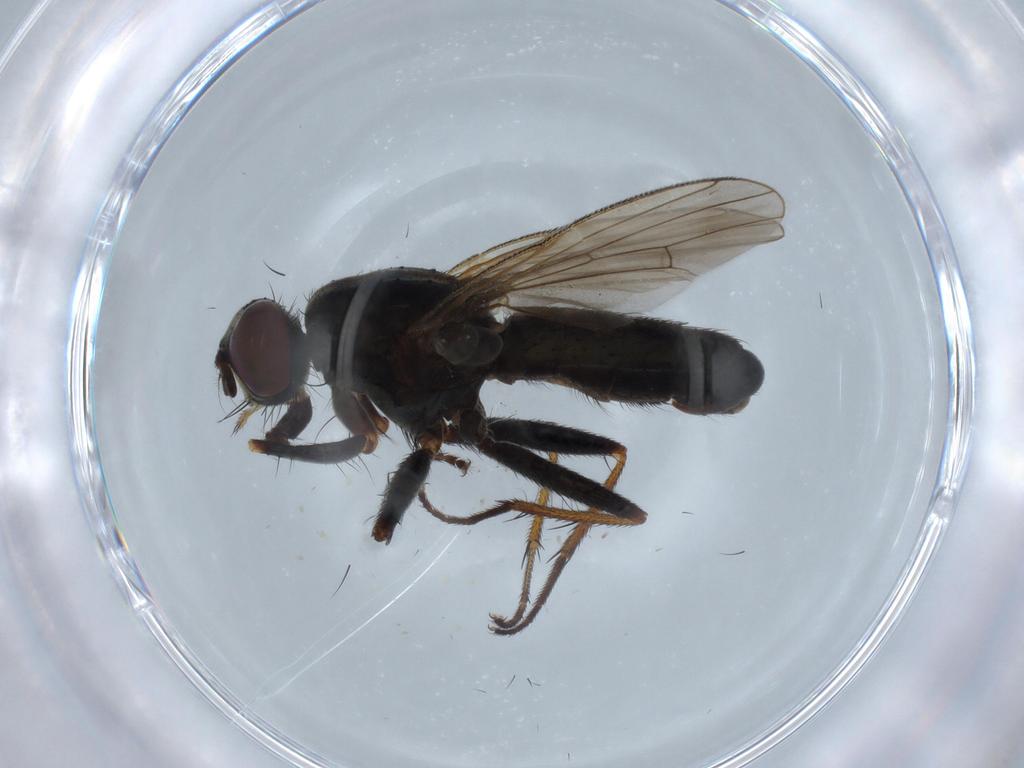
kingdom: Animalia
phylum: Arthropoda
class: Insecta
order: Diptera
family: Muscidae
